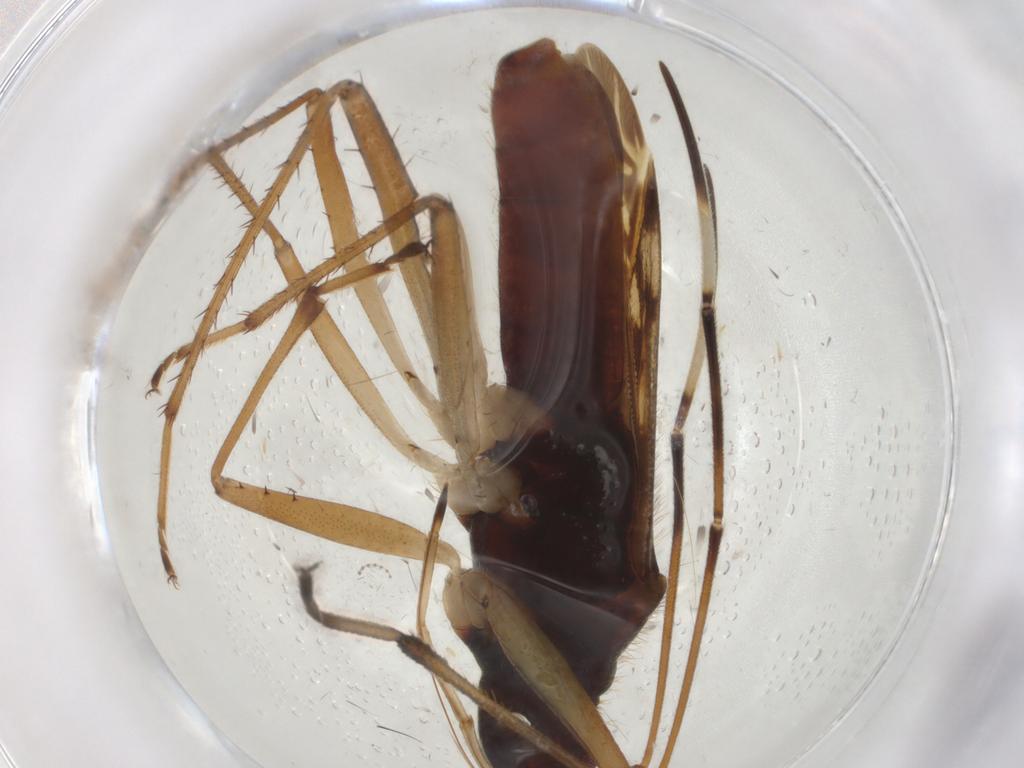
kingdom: Animalia
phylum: Arthropoda
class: Insecta
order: Hemiptera
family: Rhyparochromidae
